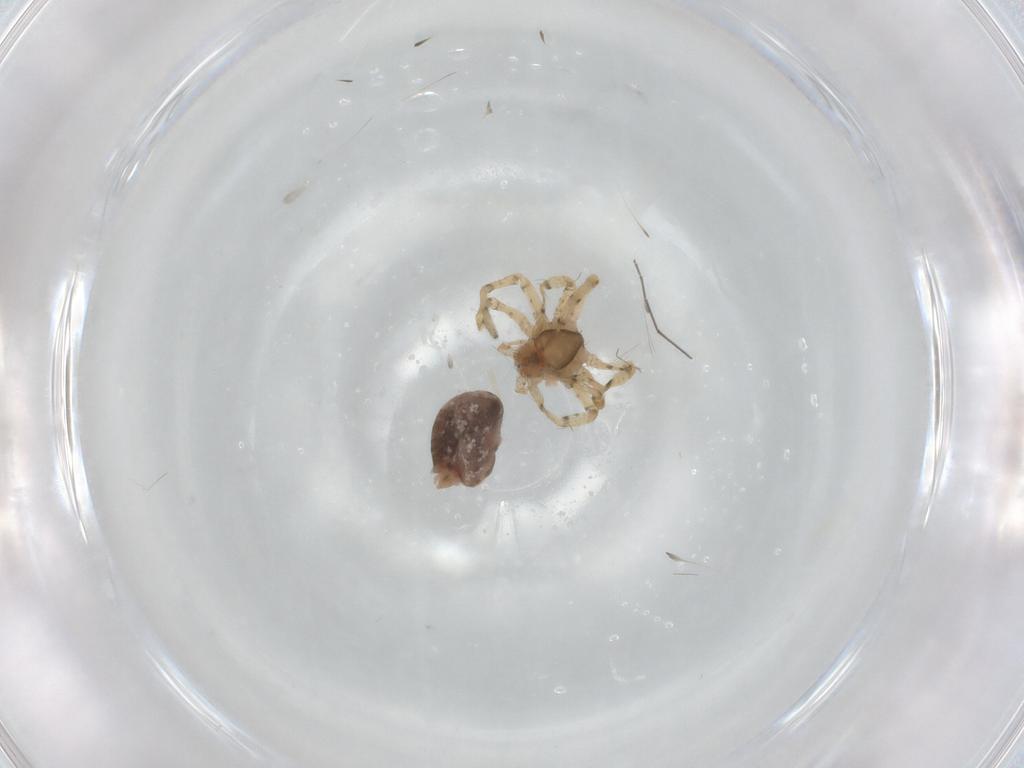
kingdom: Animalia
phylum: Arthropoda
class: Arachnida
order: Araneae
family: Theridiidae
